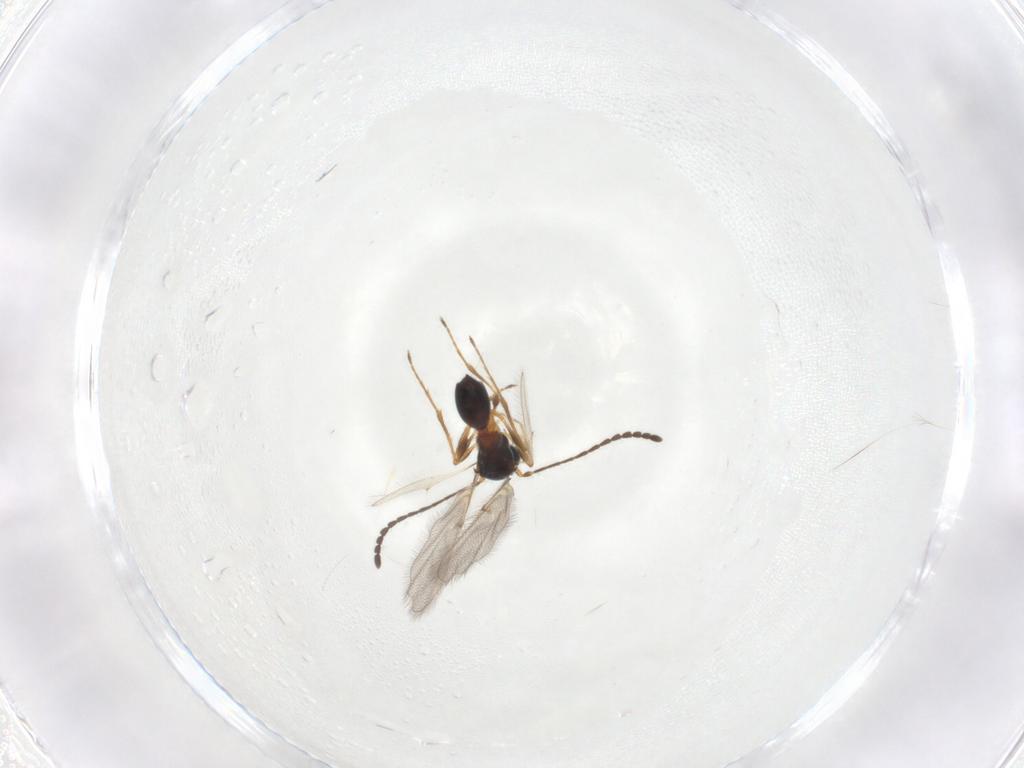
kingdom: Animalia
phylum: Arthropoda
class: Insecta
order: Hymenoptera
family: Diapriidae
